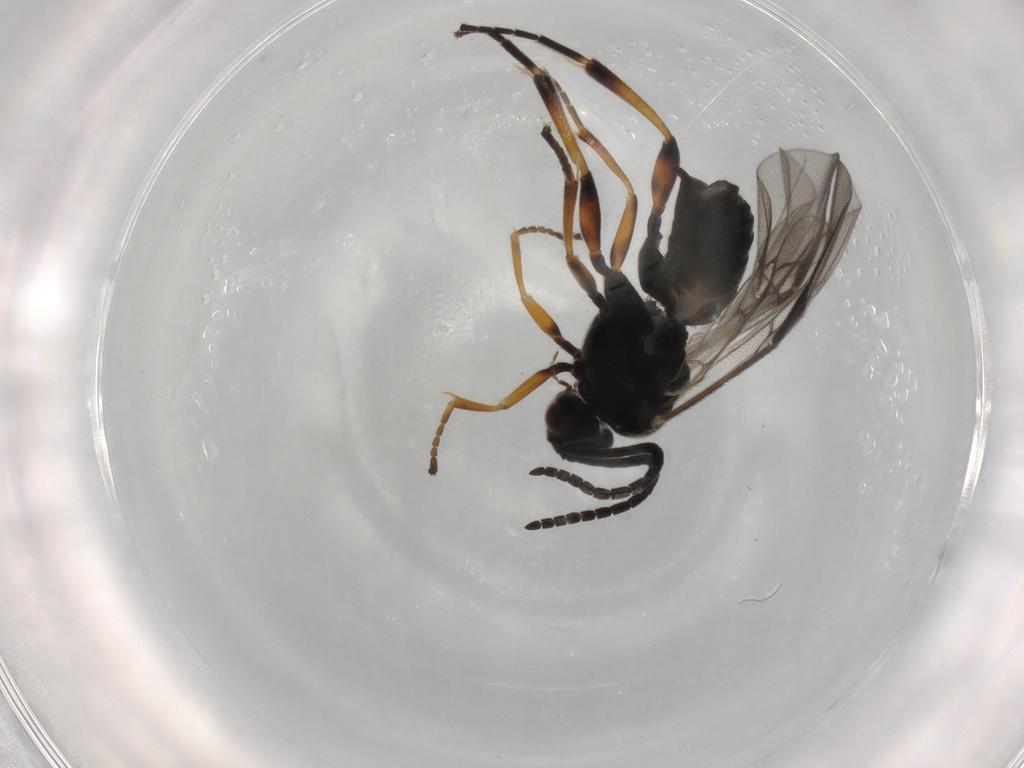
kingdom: Animalia
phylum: Arthropoda
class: Insecta
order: Hymenoptera
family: Braconidae
